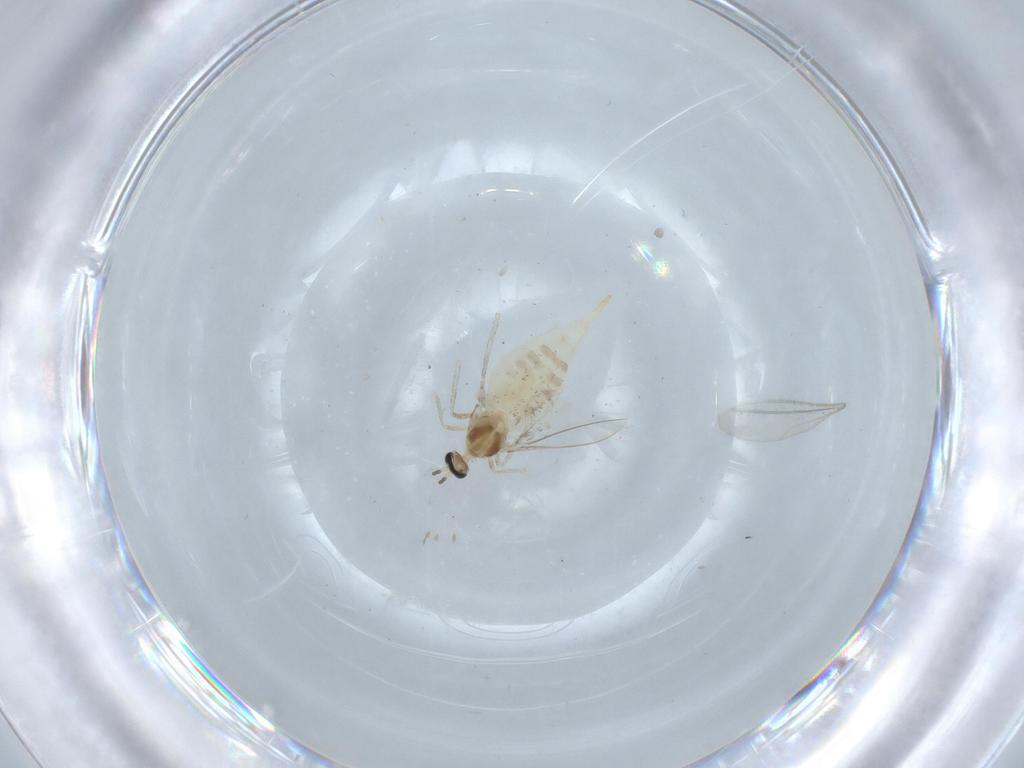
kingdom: Animalia
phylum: Arthropoda
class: Insecta
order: Diptera
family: Cecidomyiidae
